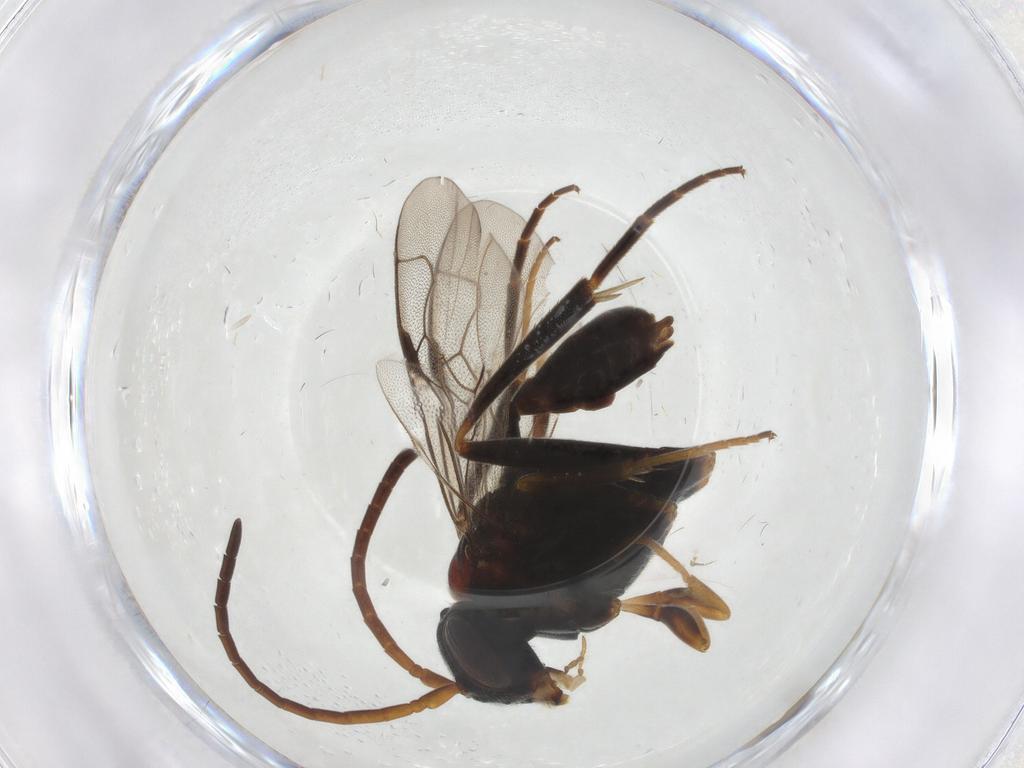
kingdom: Animalia
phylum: Arthropoda
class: Insecta
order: Hymenoptera
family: Evaniidae
